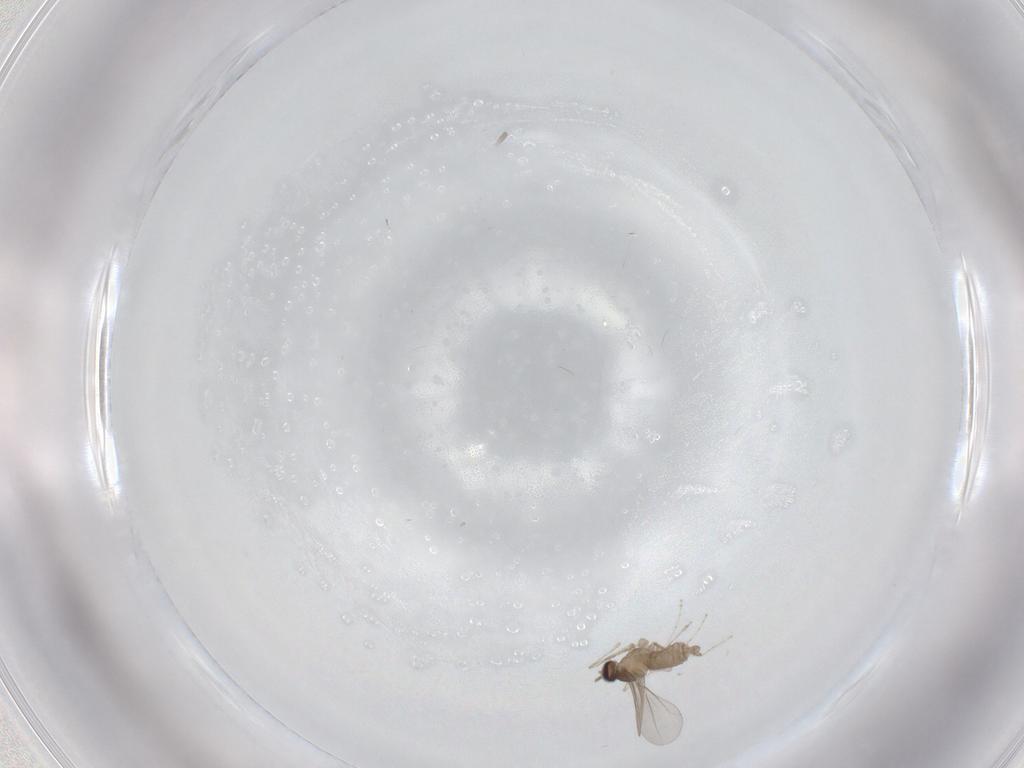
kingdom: Animalia
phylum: Arthropoda
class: Insecta
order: Diptera
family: Cecidomyiidae
